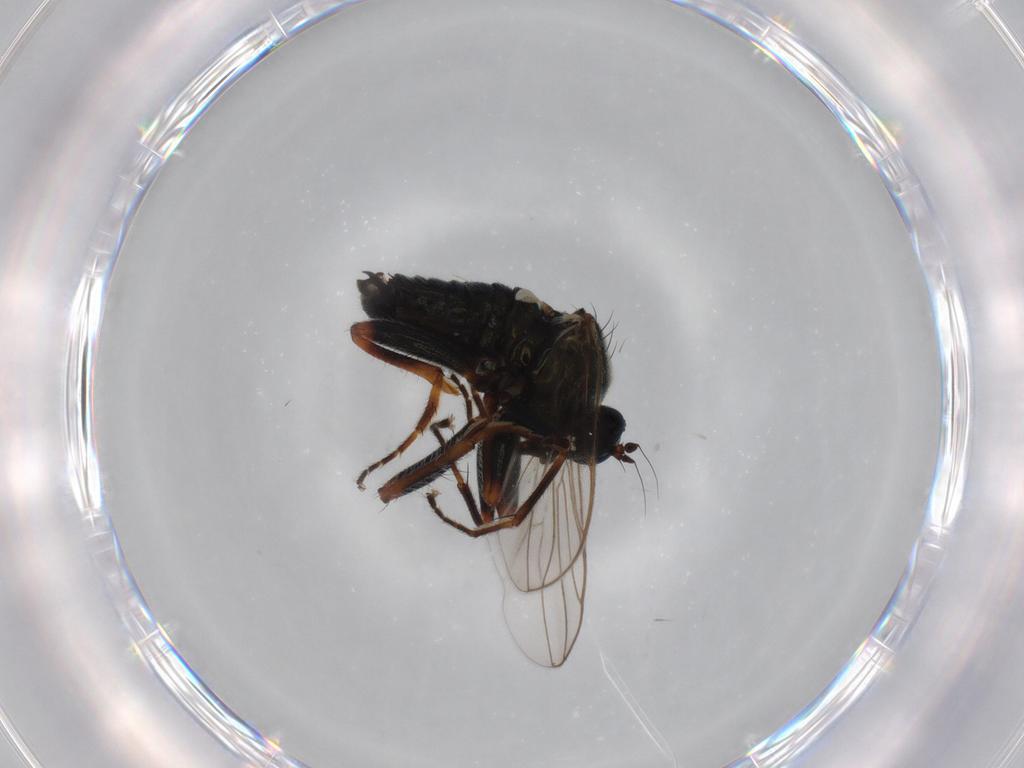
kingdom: Animalia
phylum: Arthropoda
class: Insecta
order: Diptera
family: Hybotidae
